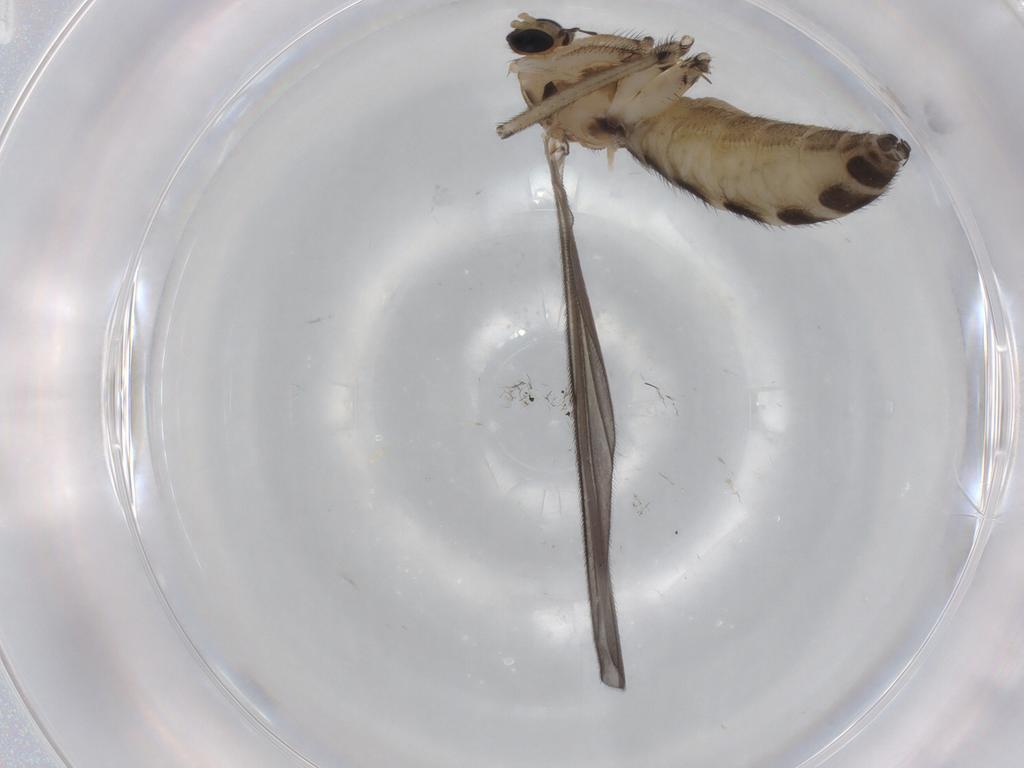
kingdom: Animalia
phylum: Arthropoda
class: Insecta
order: Diptera
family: Sciaridae
